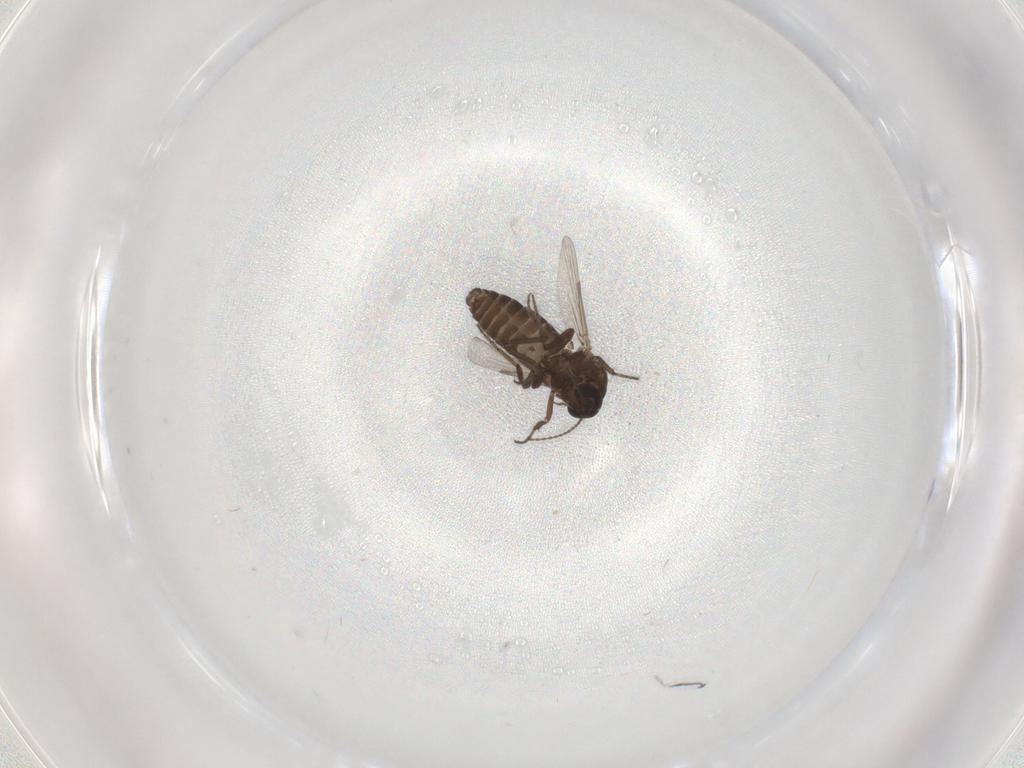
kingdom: Animalia
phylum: Arthropoda
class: Insecta
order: Diptera
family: Ceratopogonidae
